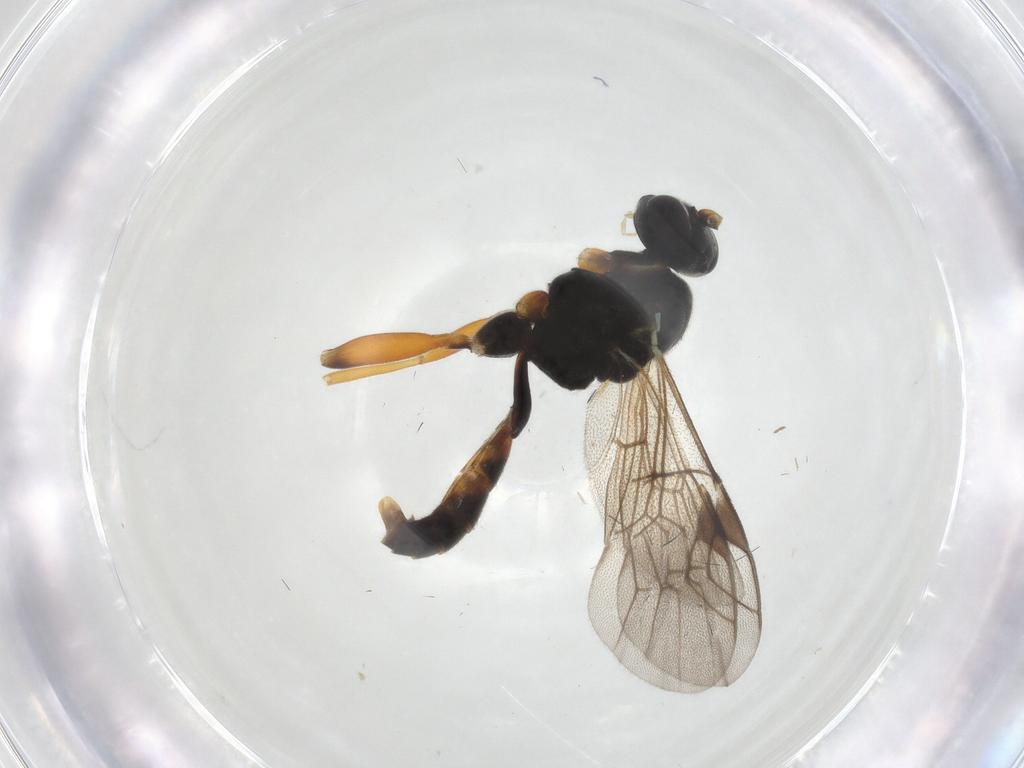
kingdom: Animalia
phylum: Arthropoda
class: Insecta
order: Hymenoptera
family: Ichneumonidae
